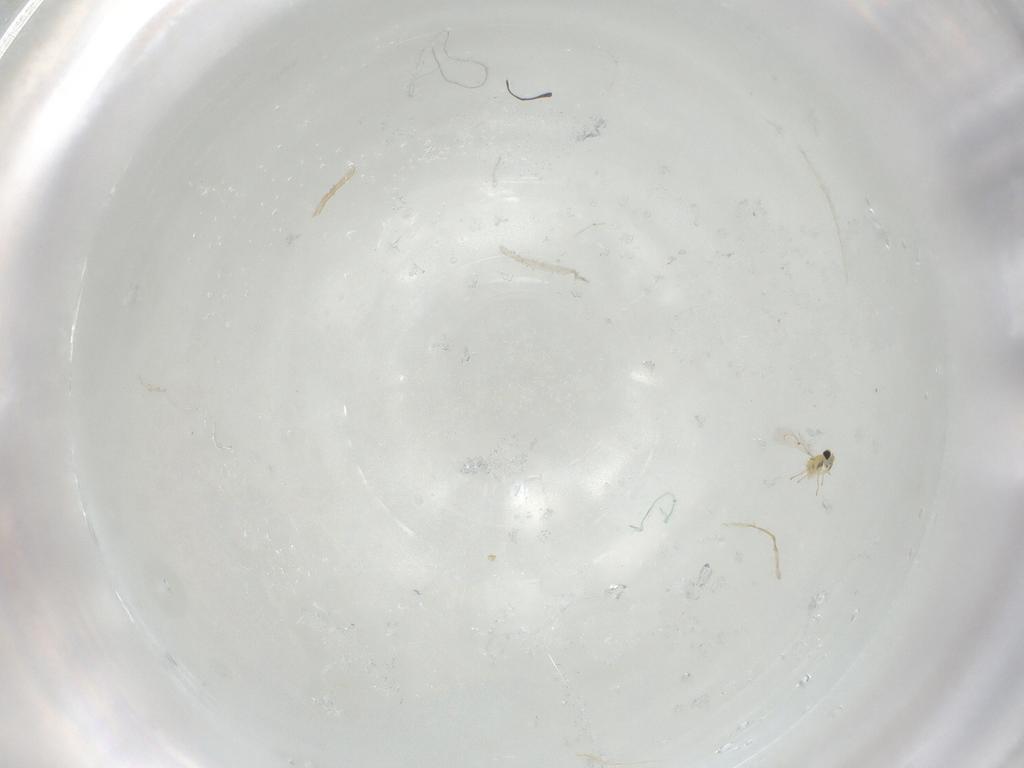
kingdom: Animalia
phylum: Arthropoda
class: Insecta
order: Hymenoptera
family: Trichogrammatidae
